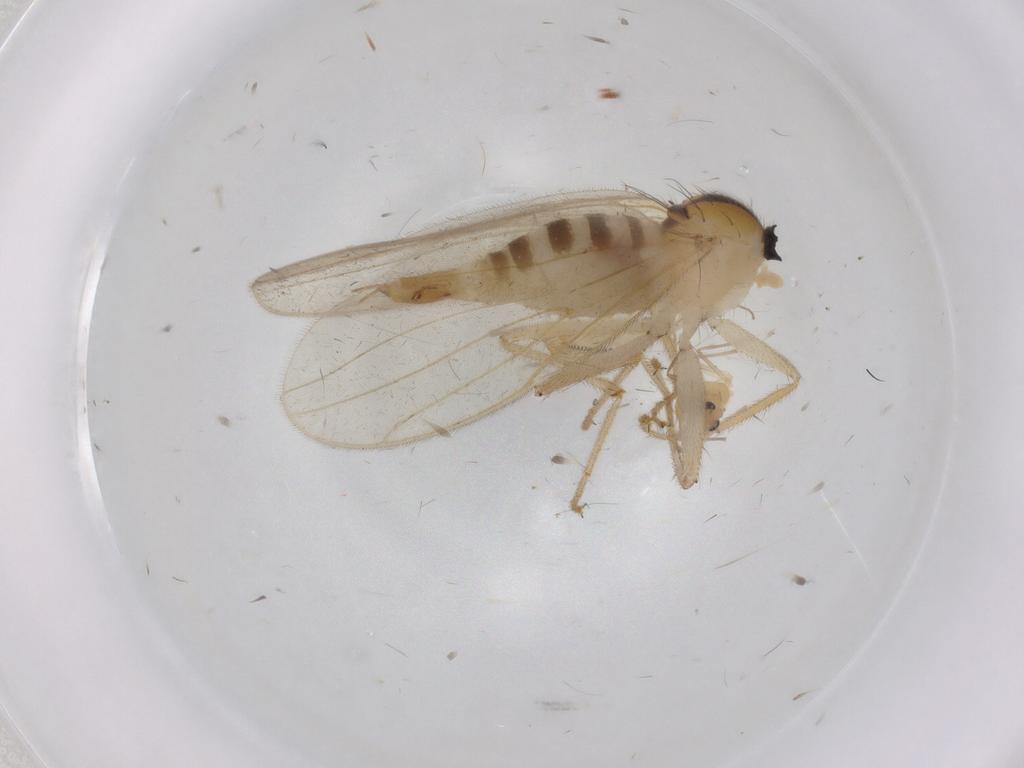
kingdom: Animalia
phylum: Arthropoda
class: Insecta
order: Diptera
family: Hybotidae
